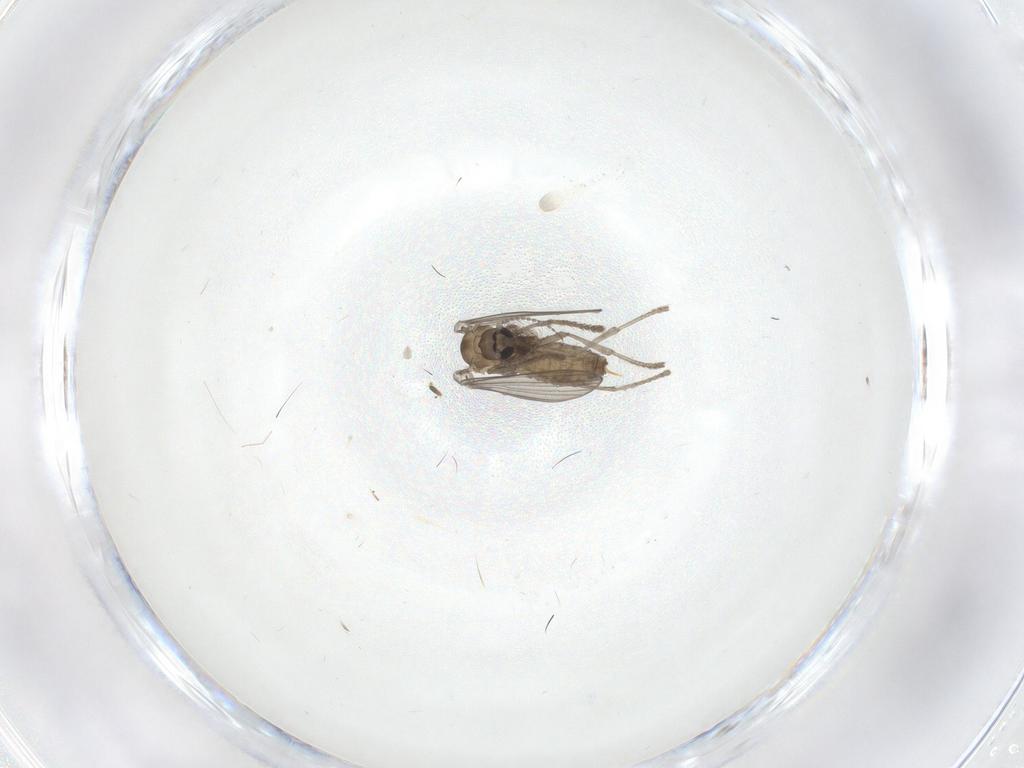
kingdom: Animalia
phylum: Arthropoda
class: Insecta
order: Diptera
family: Psychodidae
